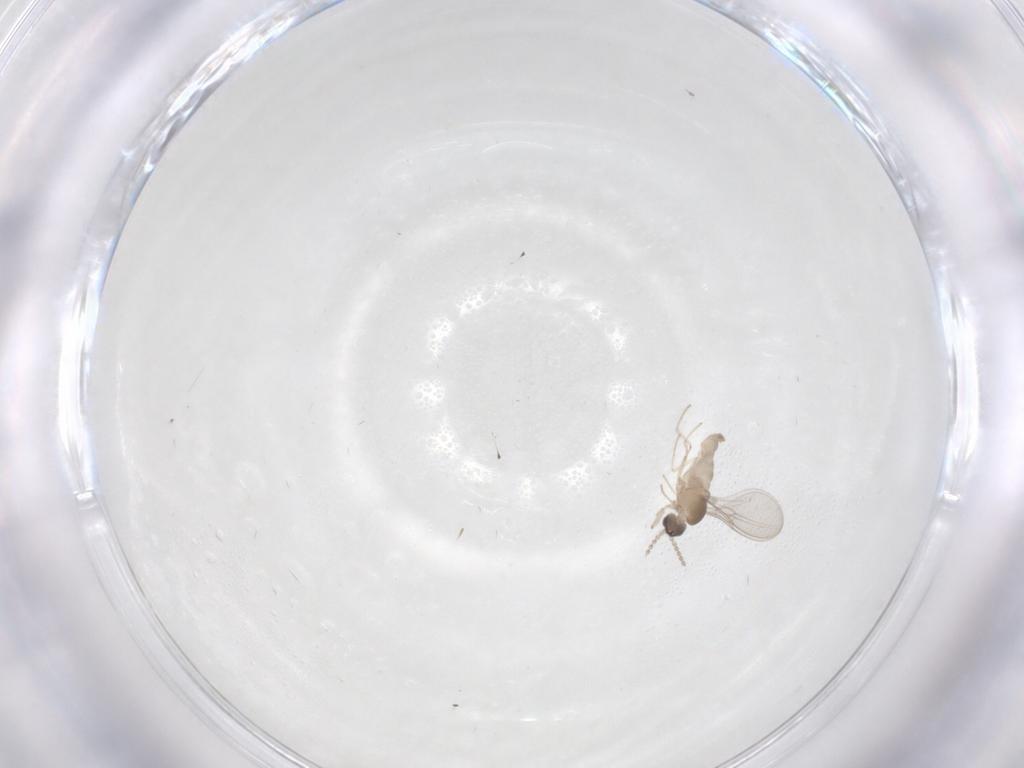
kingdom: Animalia
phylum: Arthropoda
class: Insecta
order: Diptera
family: Cecidomyiidae
